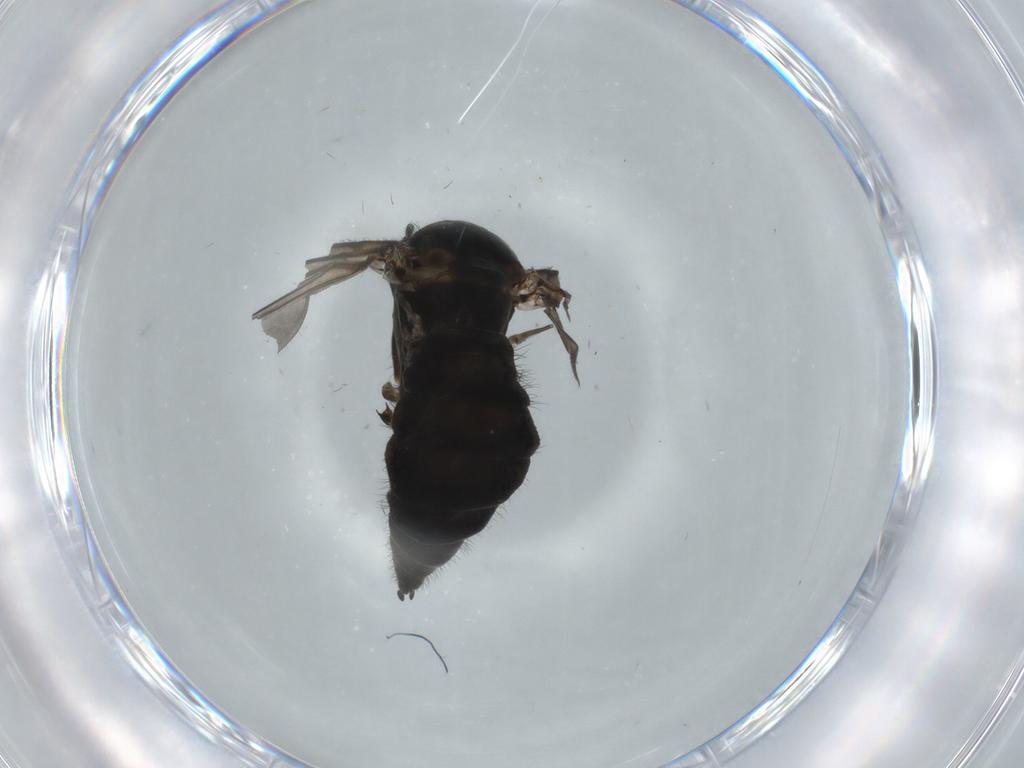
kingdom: Animalia
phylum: Arthropoda
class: Insecta
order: Diptera
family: Sciaridae
